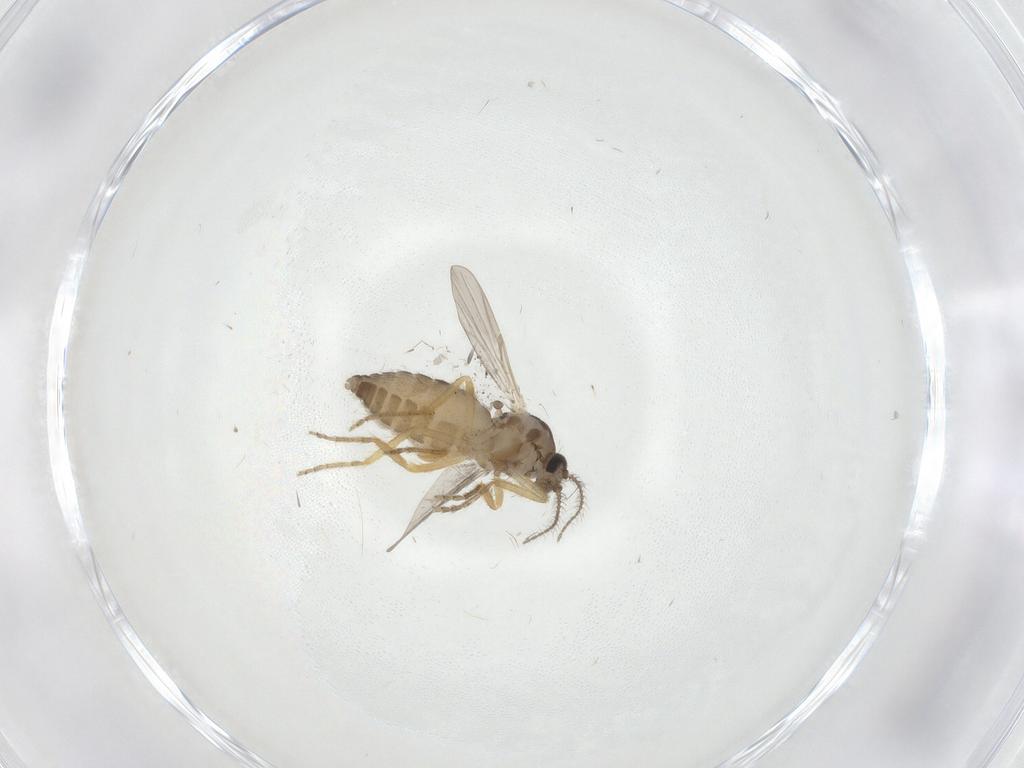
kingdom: Animalia
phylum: Arthropoda
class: Insecta
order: Diptera
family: Ceratopogonidae
